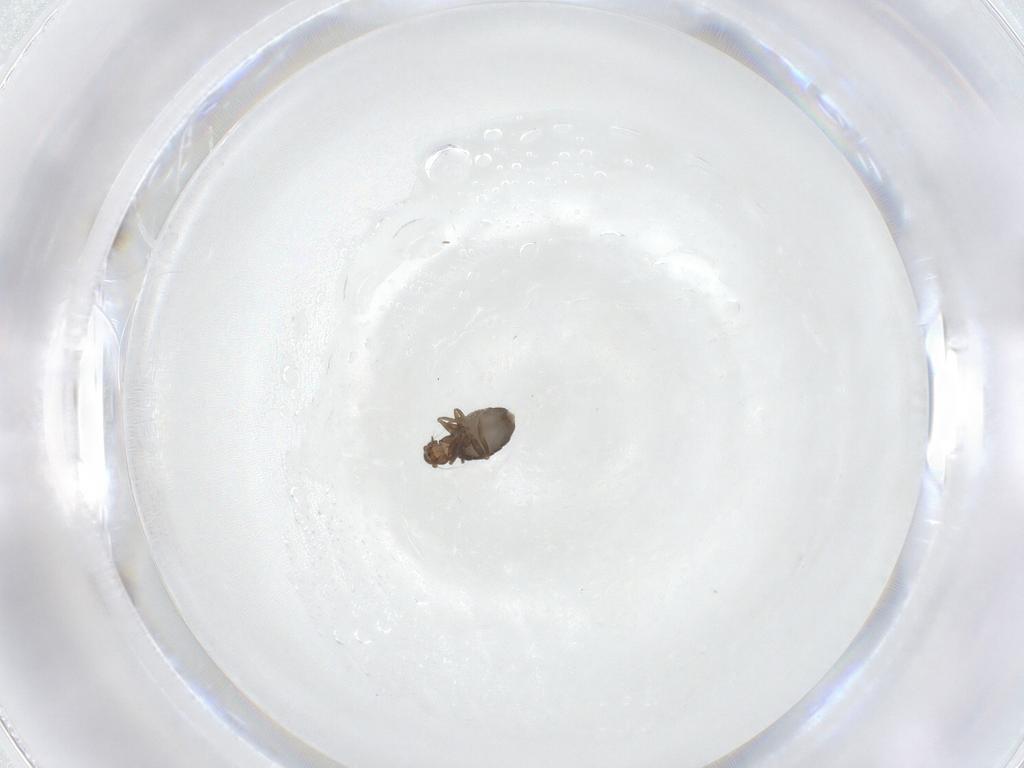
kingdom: Animalia
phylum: Arthropoda
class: Insecta
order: Diptera
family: Phoridae
